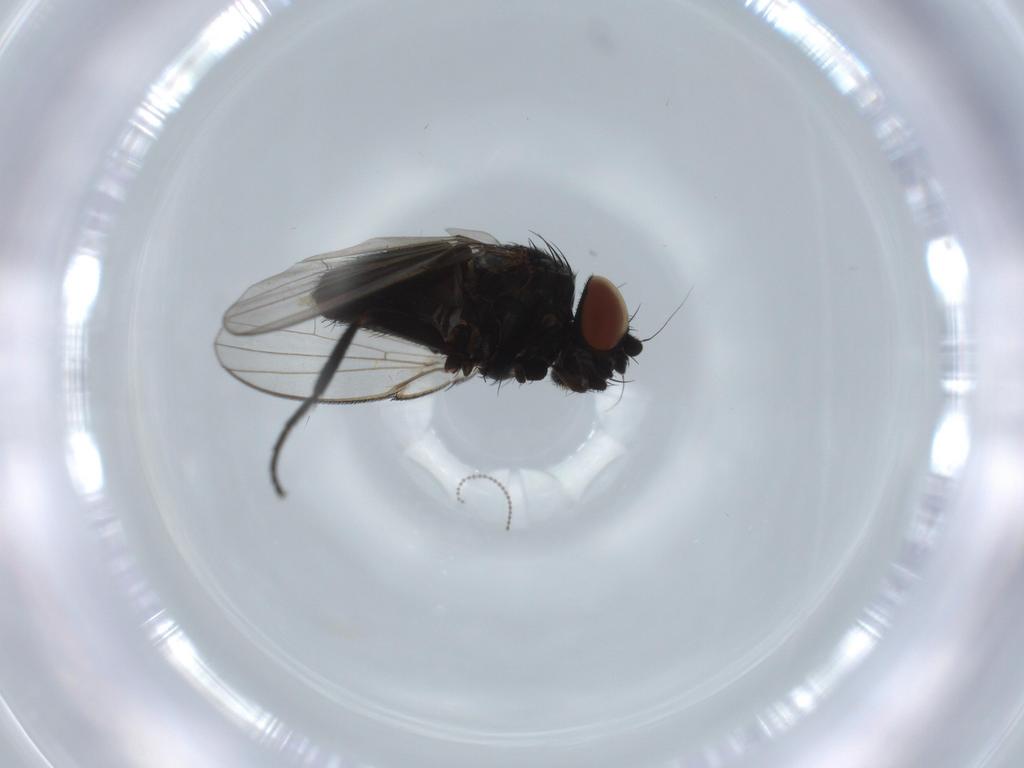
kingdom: Animalia
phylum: Arthropoda
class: Insecta
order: Diptera
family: Milichiidae
